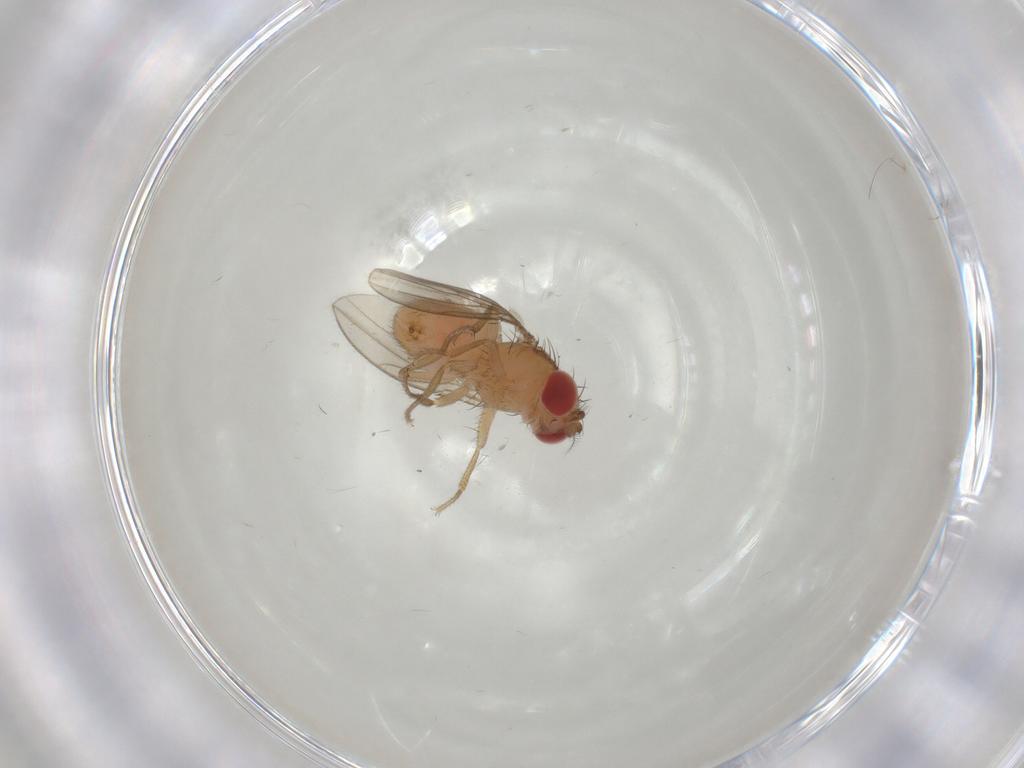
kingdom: Animalia
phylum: Arthropoda
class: Insecta
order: Diptera
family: Drosophilidae
